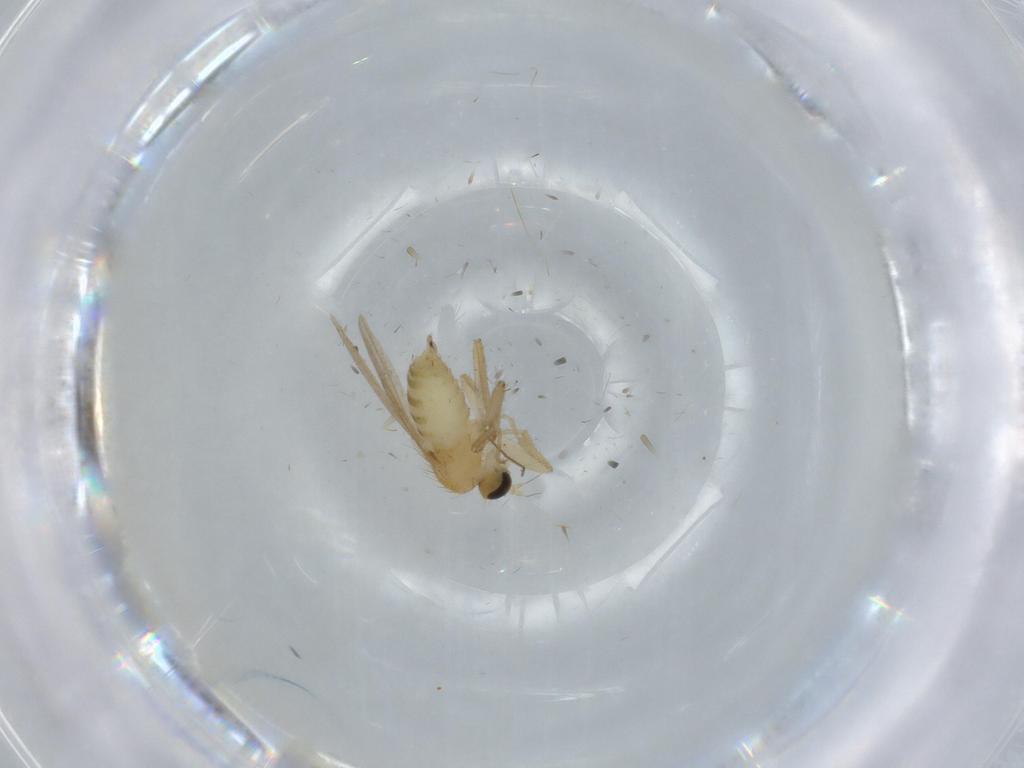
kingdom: Animalia
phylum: Arthropoda
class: Insecta
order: Diptera
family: Hybotidae
